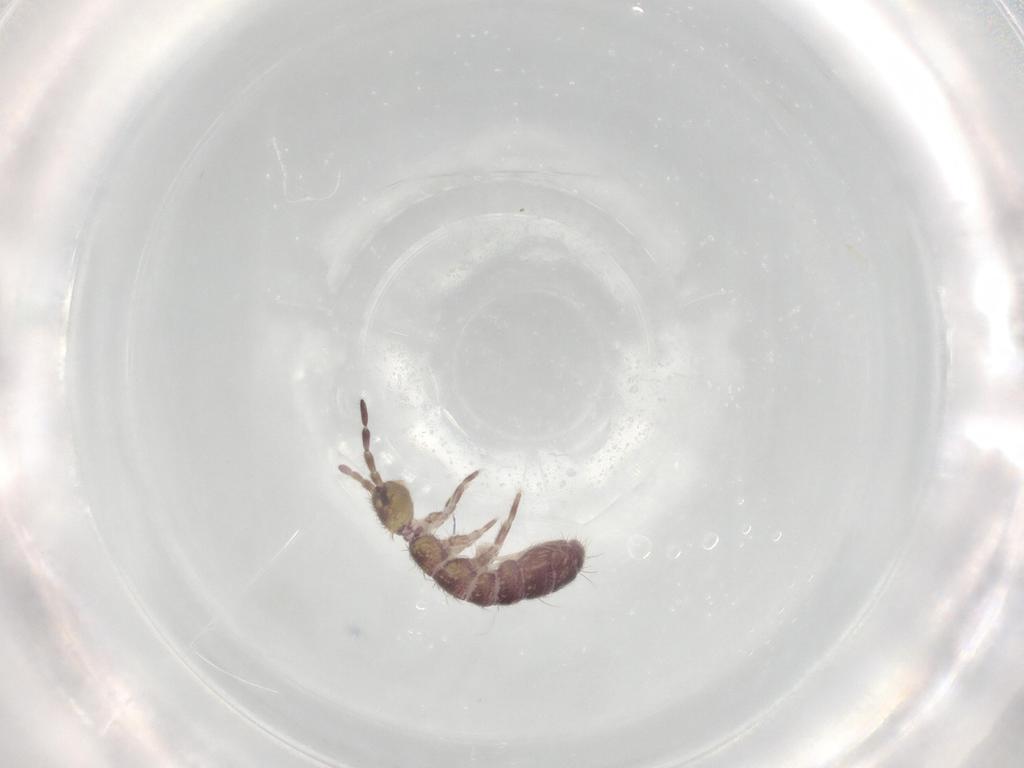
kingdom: Animalia
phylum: Arthropoda
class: Collembola
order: Entomobryomorpha
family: Isotomidae
